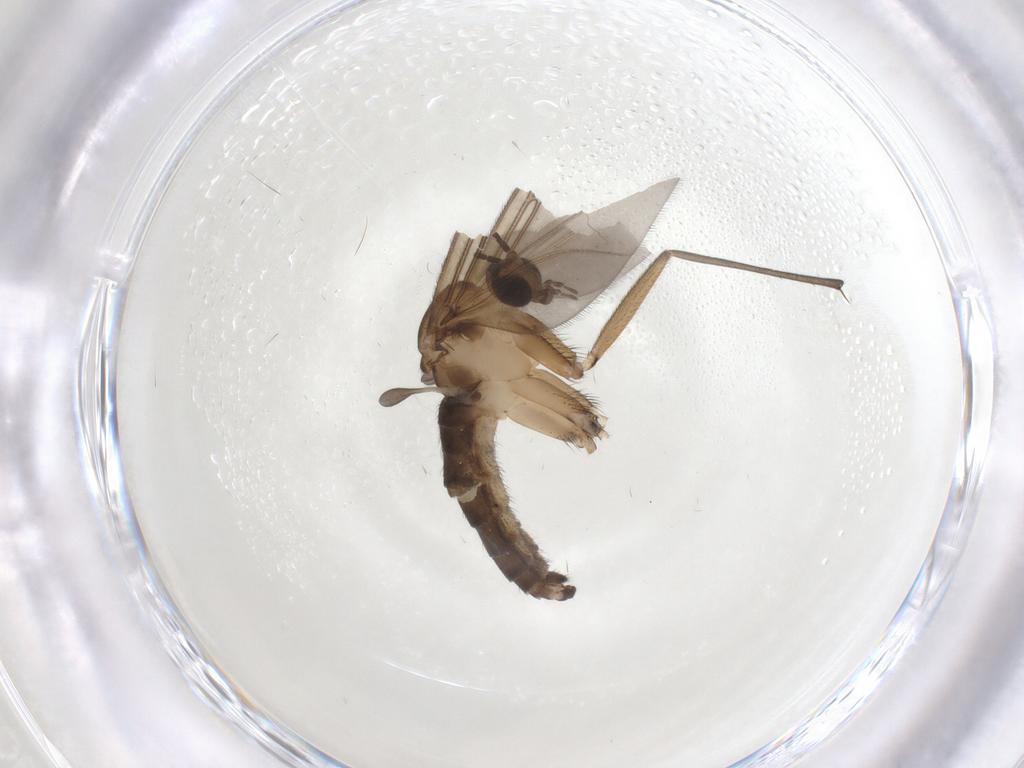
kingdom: Animalia
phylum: Arthropoda
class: Insecta
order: Diptera
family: Sciaridae
